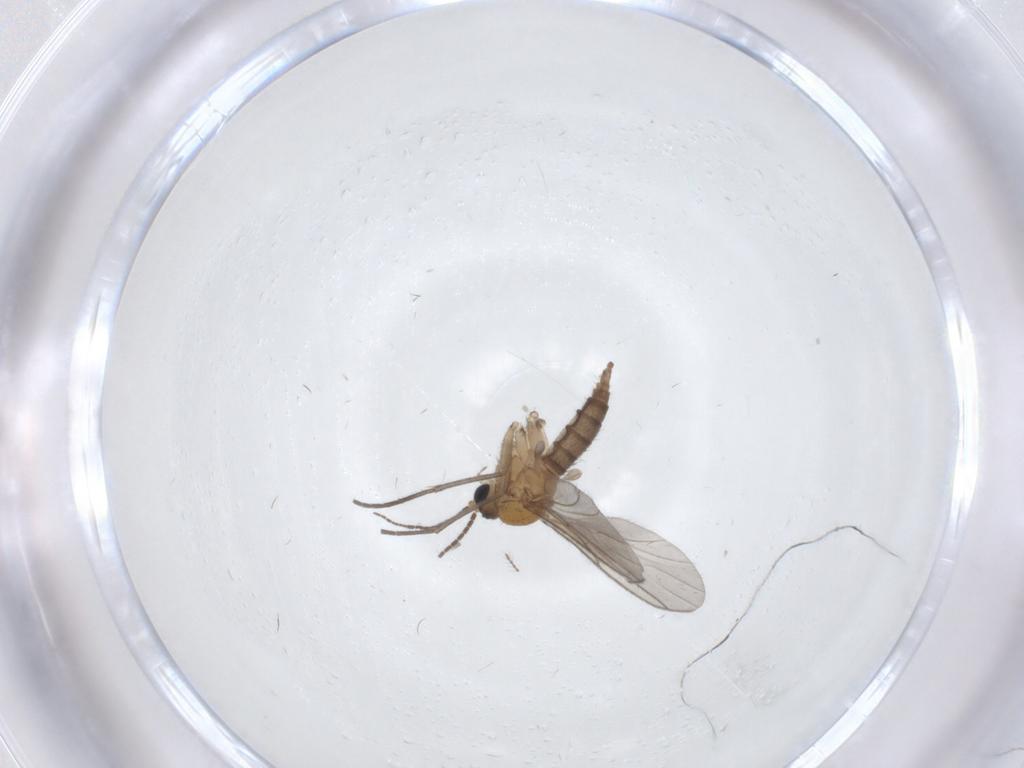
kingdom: Animalia
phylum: Arthropoda
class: Insecta
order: Diptera
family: Sciaridae
